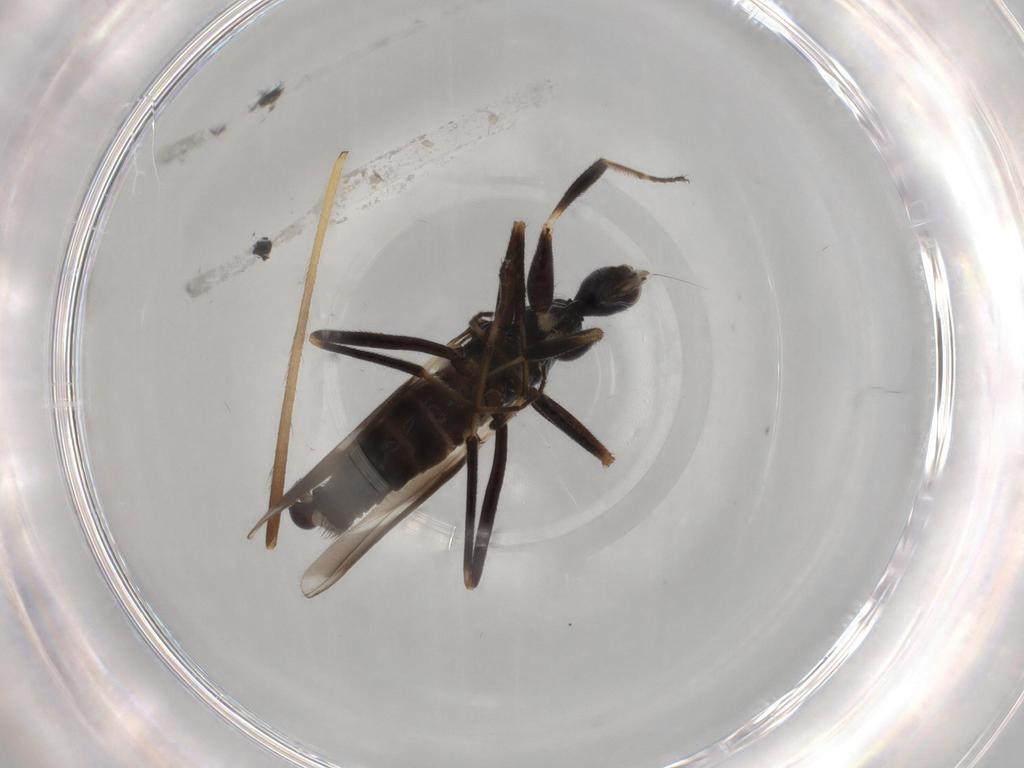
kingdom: Animalia
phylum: Arthropoda
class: Insecta
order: Diptera
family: Limoniidae
